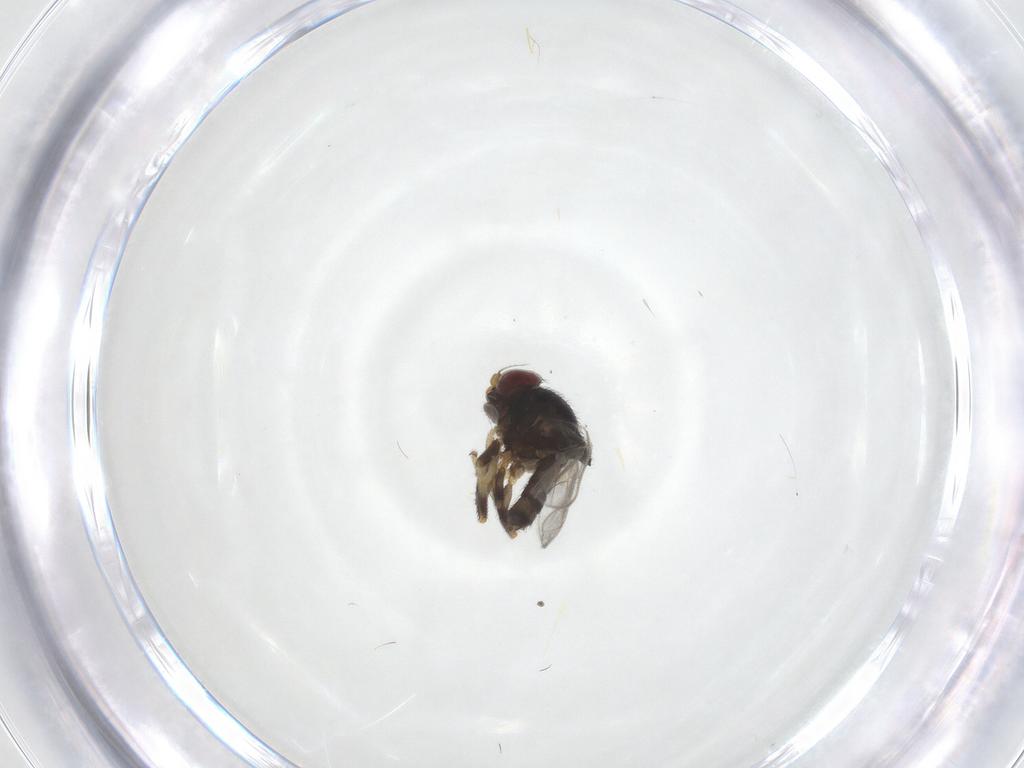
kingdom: Animalia
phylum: Arthropoda
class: Insecta
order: Diptera
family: Chloropidae
